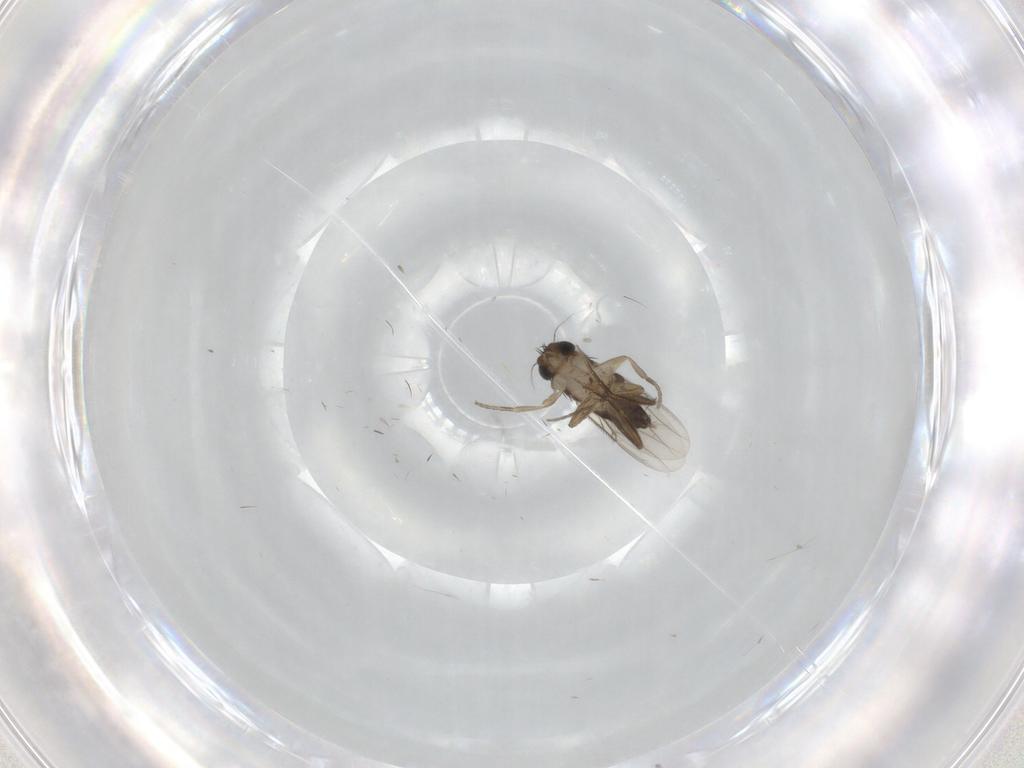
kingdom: Animalia
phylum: Arthropoda
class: Insecta
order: Diptera
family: Phoridae
